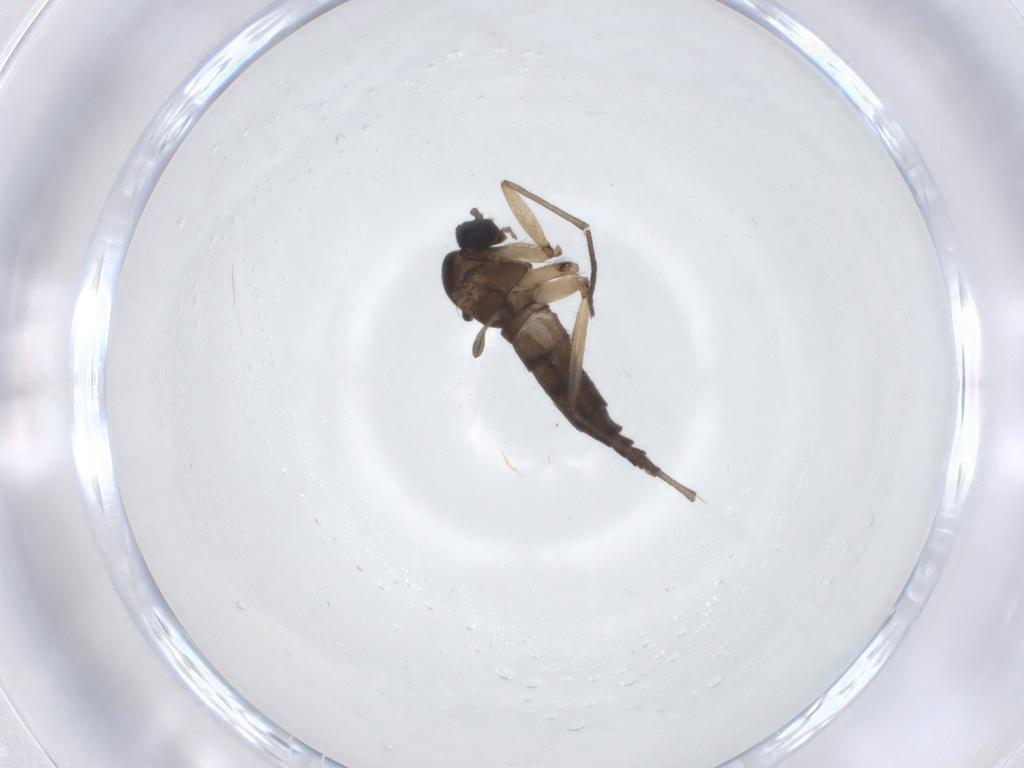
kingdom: Animalia
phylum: Arthropoda
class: Insecta
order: Diptera
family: Sciaridae
